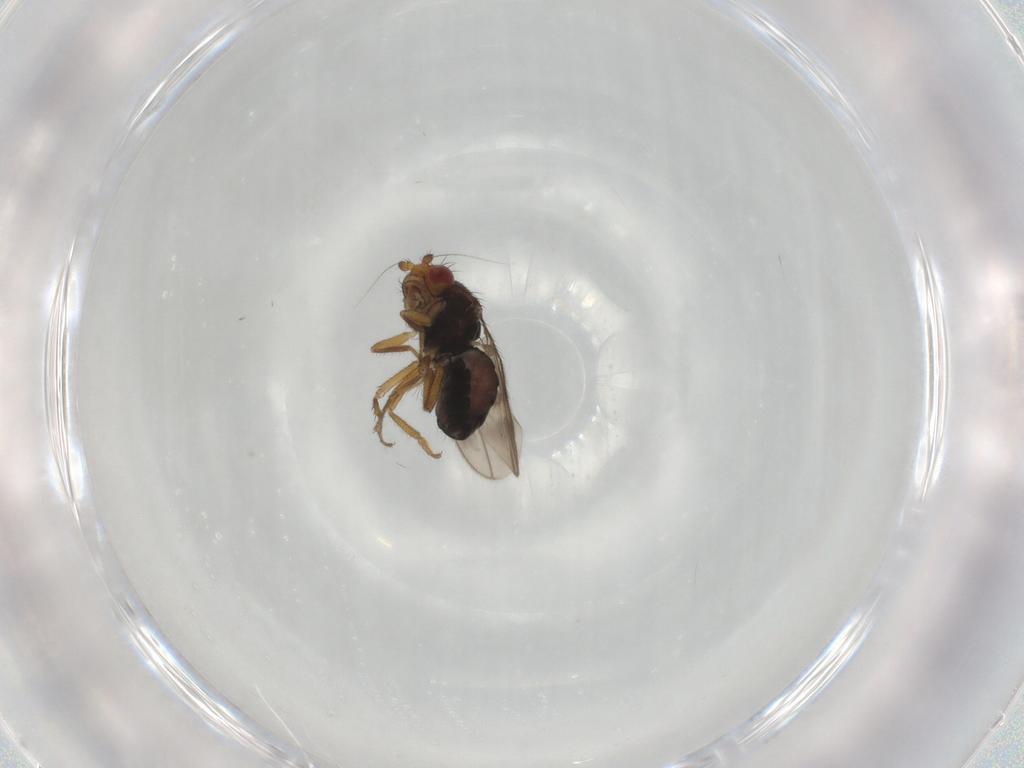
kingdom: Animalia
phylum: Arthropoda
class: Insecta
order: Diptera
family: Sphaeroceridae
